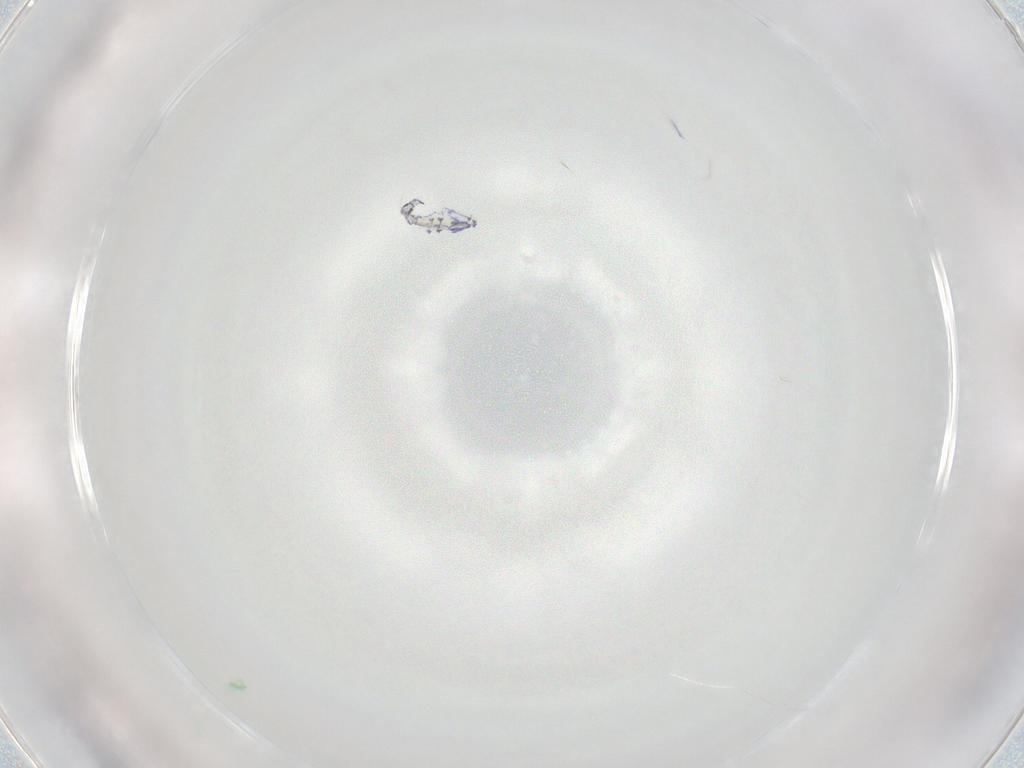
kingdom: Animalia
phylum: Arthropoda
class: Collembola
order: Entomobryomorpha
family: Entomobryidae
